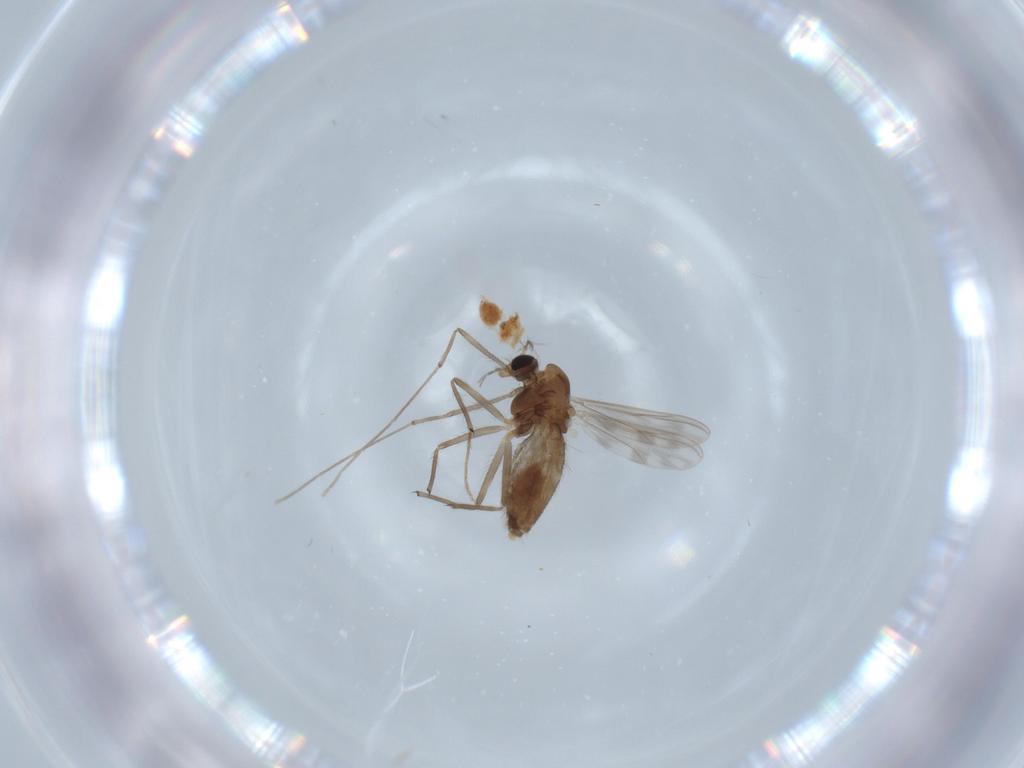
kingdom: Animalia
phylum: Arthropoda
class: Insecta
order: Diptera
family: Chironomidae
